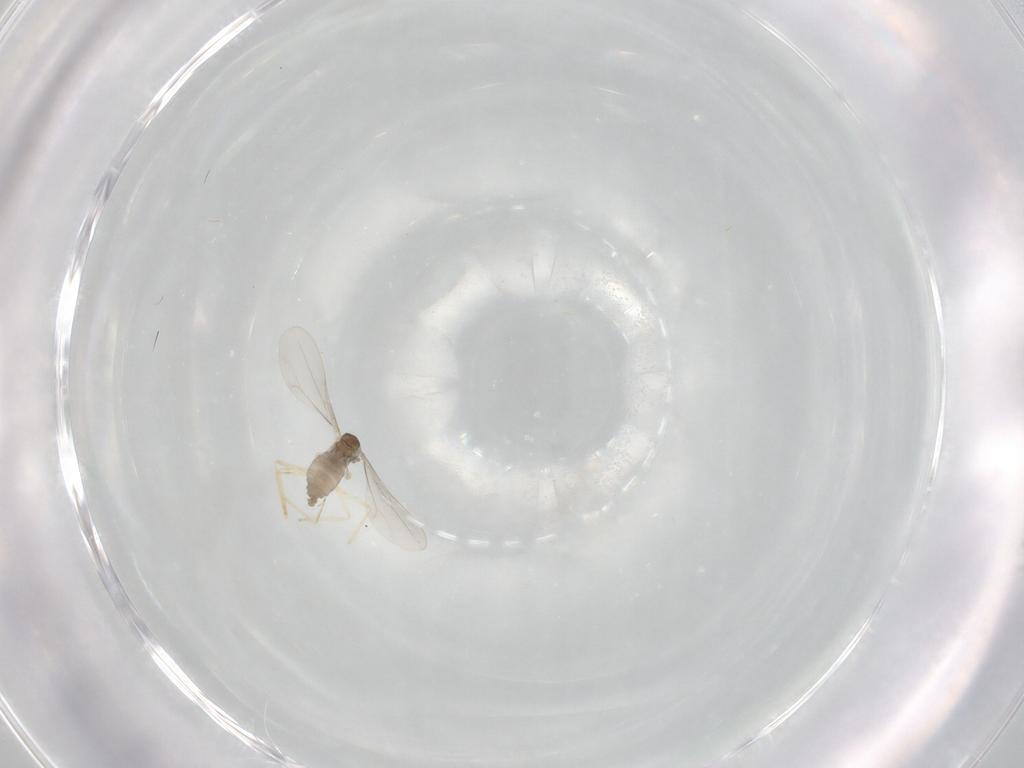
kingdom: Animalia
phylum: Arthropoda
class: Insecta
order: Diptera
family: Cecidomyiidae
